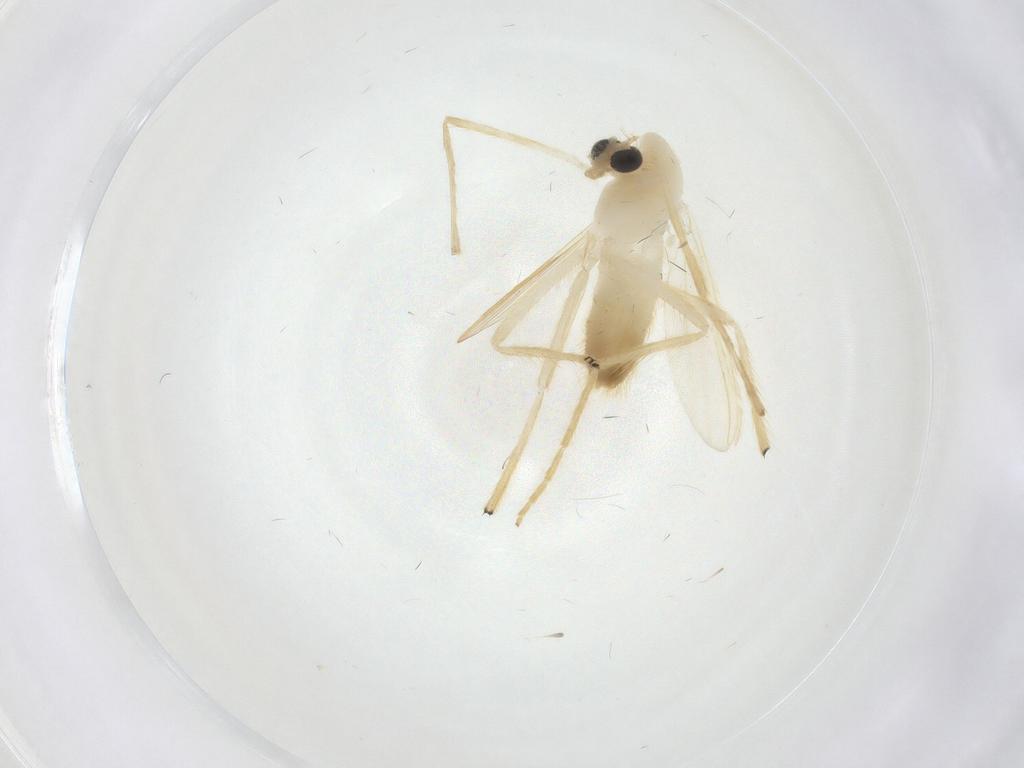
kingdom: Animalia
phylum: Arthropoda
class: Insecta
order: Diptera
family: Chironomidae
